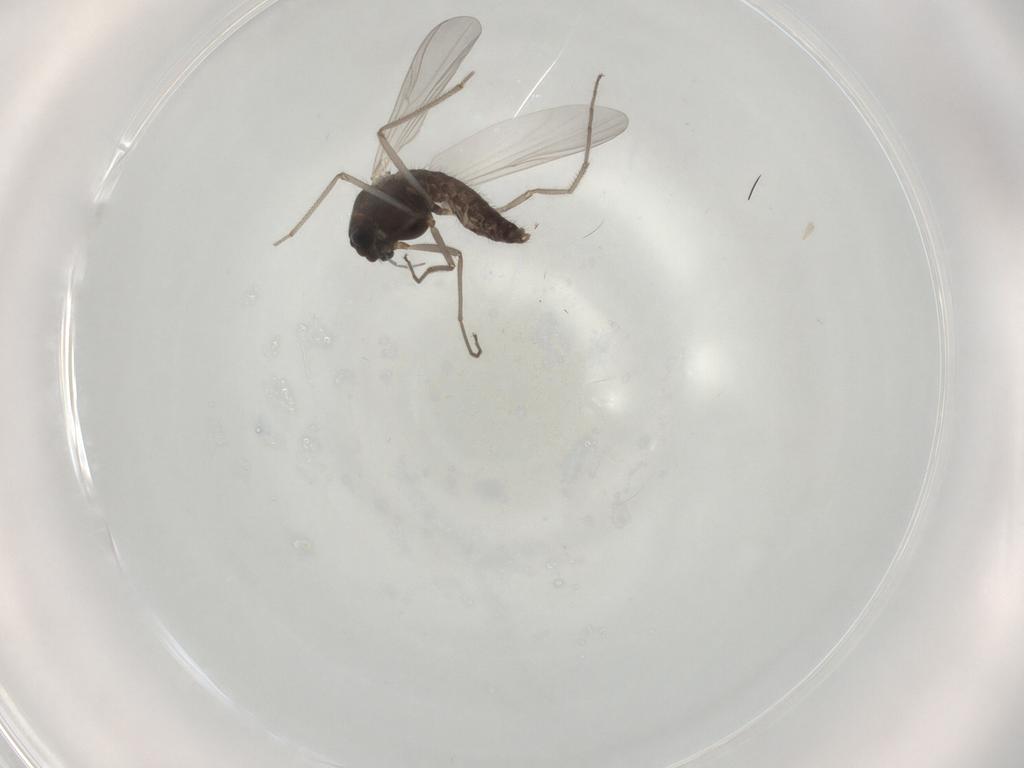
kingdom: Animalia
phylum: Arthropoda
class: Insecta
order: Diptera
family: Chironomidae
